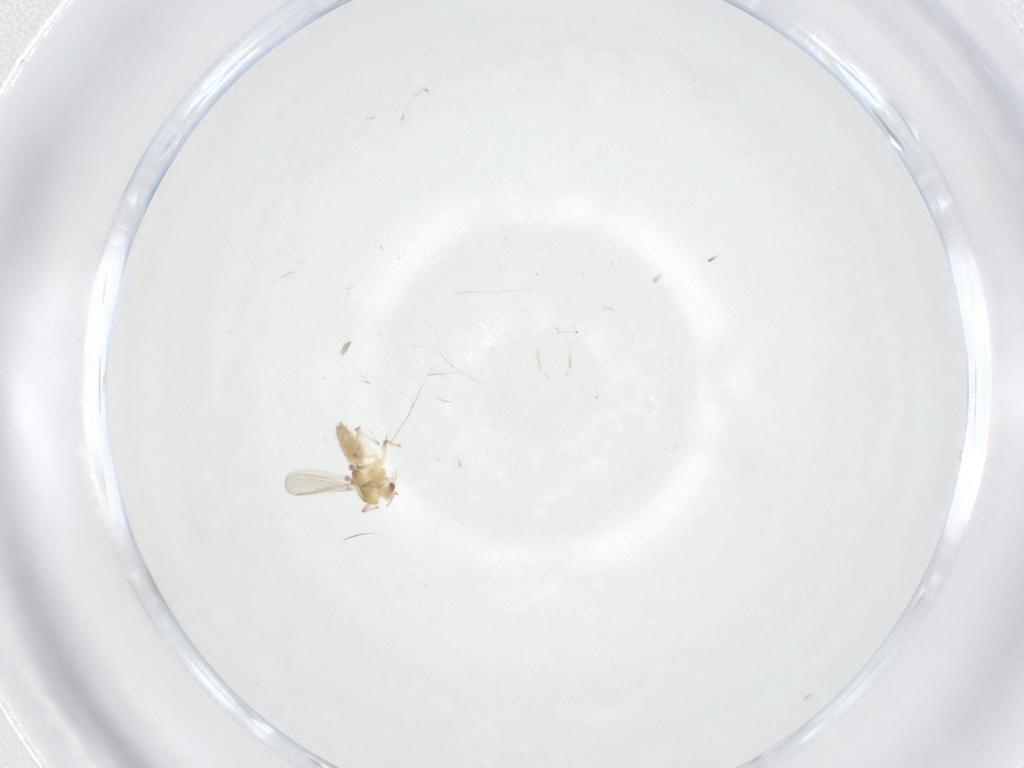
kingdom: Animalia
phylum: Arthropoda
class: Insecta
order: Diptera
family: Chironomidae
